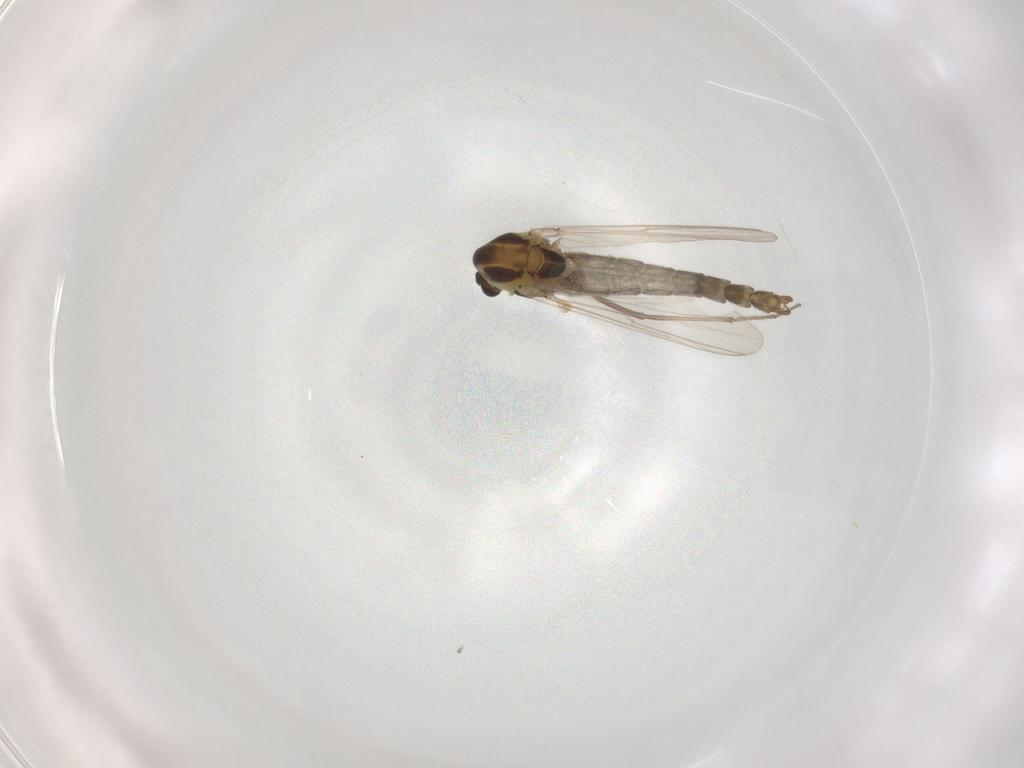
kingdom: Animalia
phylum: Arthropoda
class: Insecta
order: Diptera
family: Chironomidae
